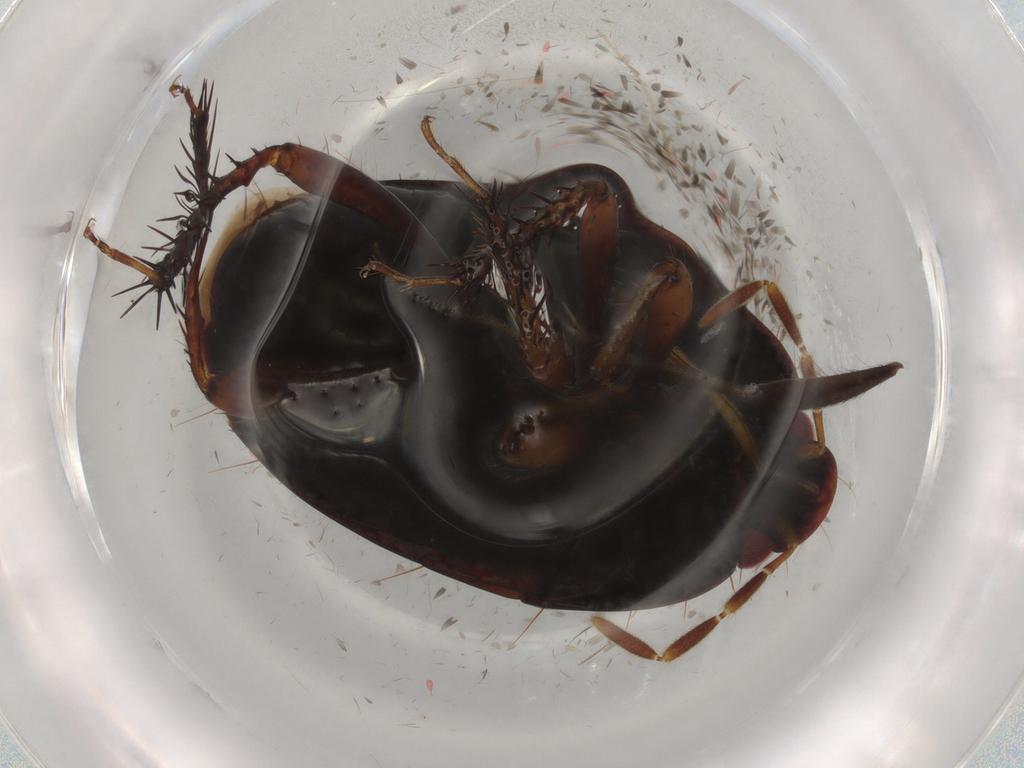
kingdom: Animalia
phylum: Arthropoda
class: Insecta
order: Hemiptera
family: Cydnidae
